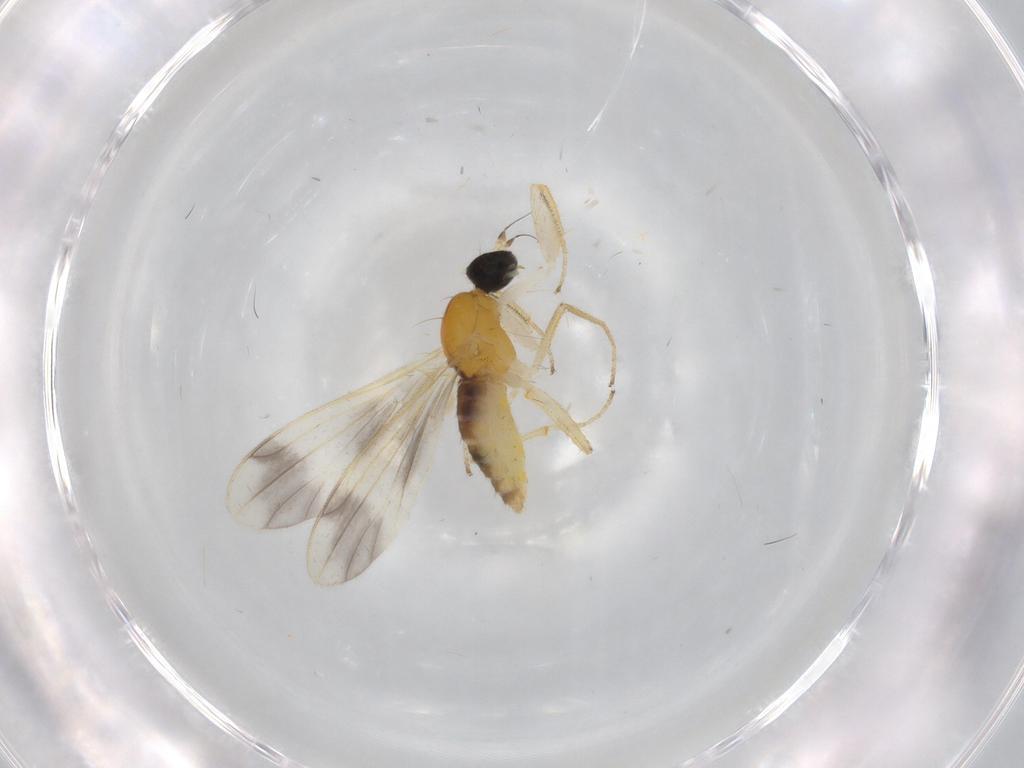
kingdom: Animalia
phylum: Arthropoda
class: Insecta
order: Diptera
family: Empididae
